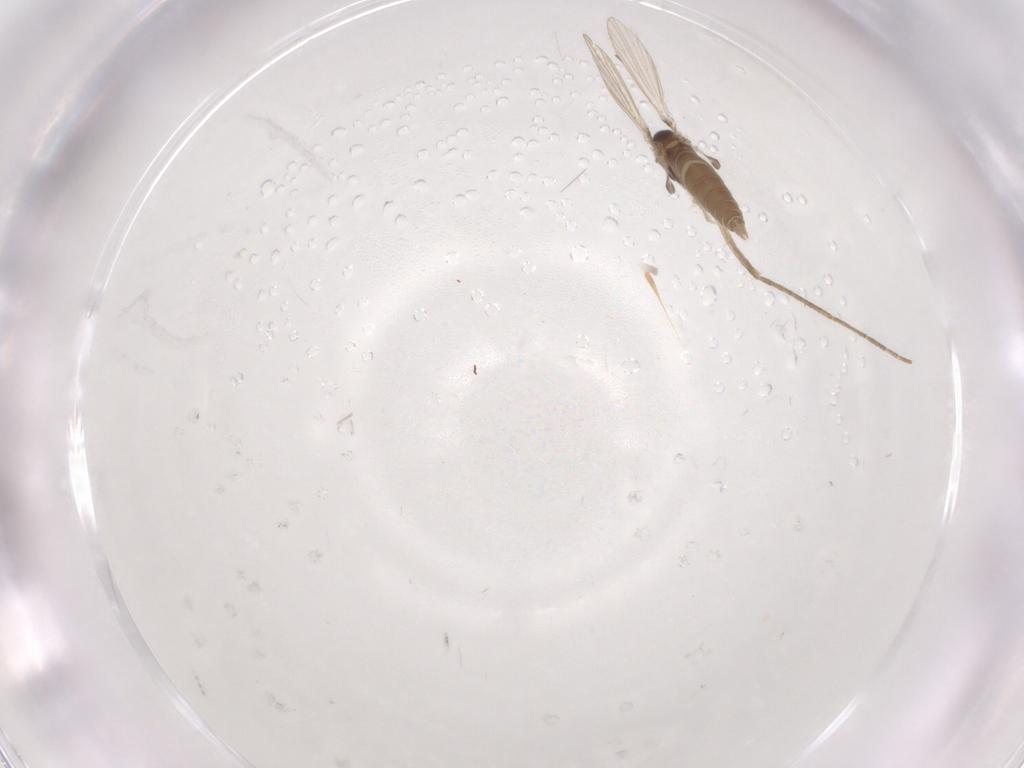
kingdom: Animalia
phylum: Arthropoda
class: Insecta
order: Diptera
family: Psychodidae
